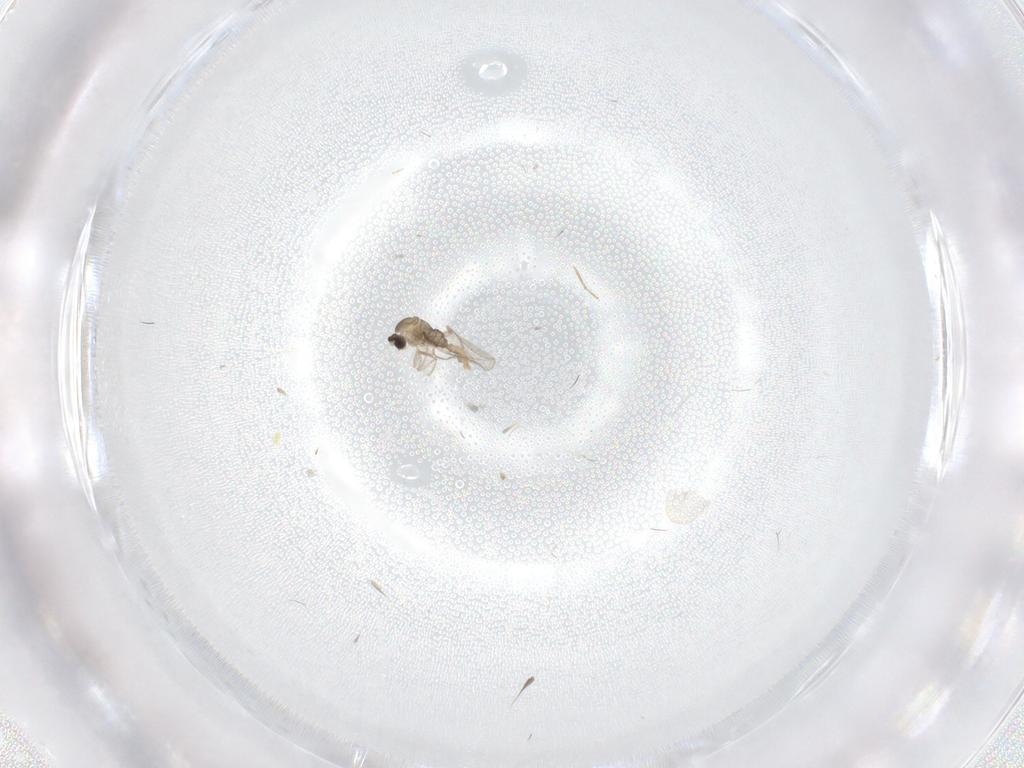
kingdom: Animalia
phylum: Arthropoda
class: Insecta
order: Diptera
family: Cecidomyiidae
